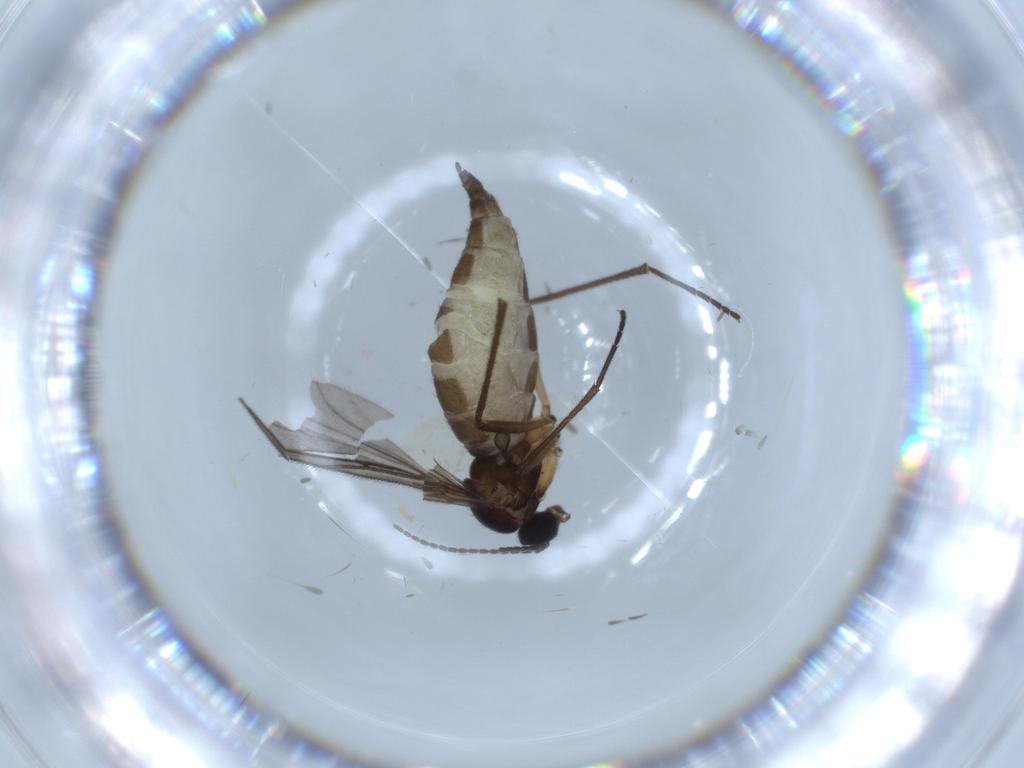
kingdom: Animalia
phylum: Arthropoda
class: Insecta
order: Diptera
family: Sciaridae
